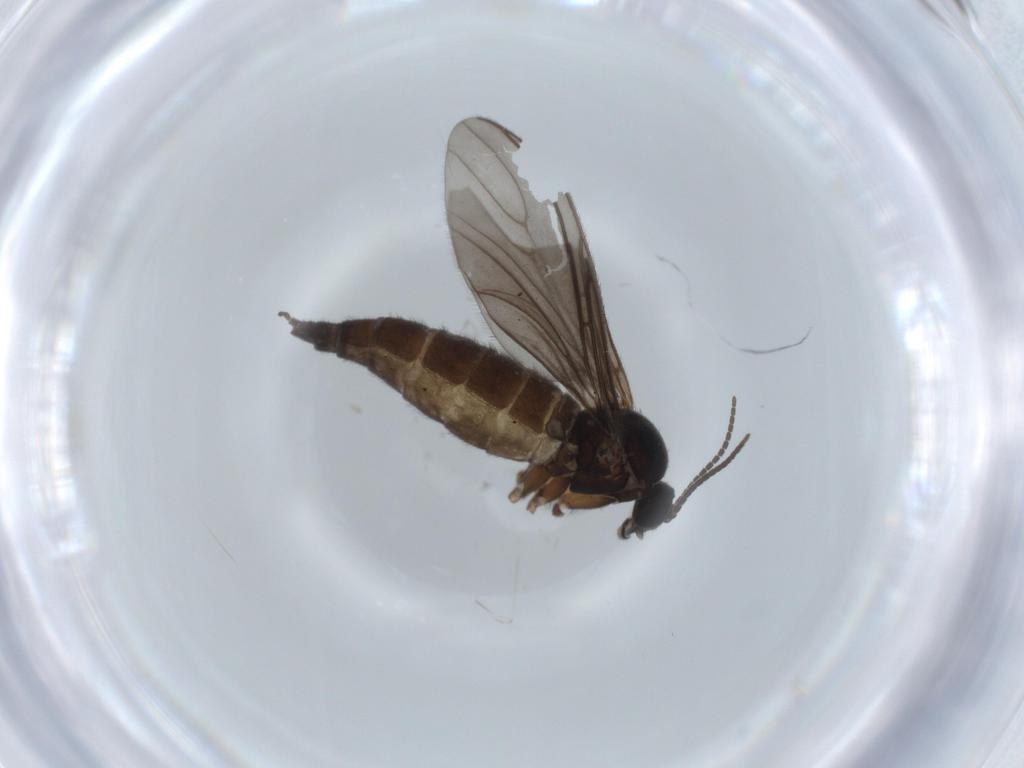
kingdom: Animalia
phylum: Arthropoda
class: Insecta
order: Diptera
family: Sciaridae
